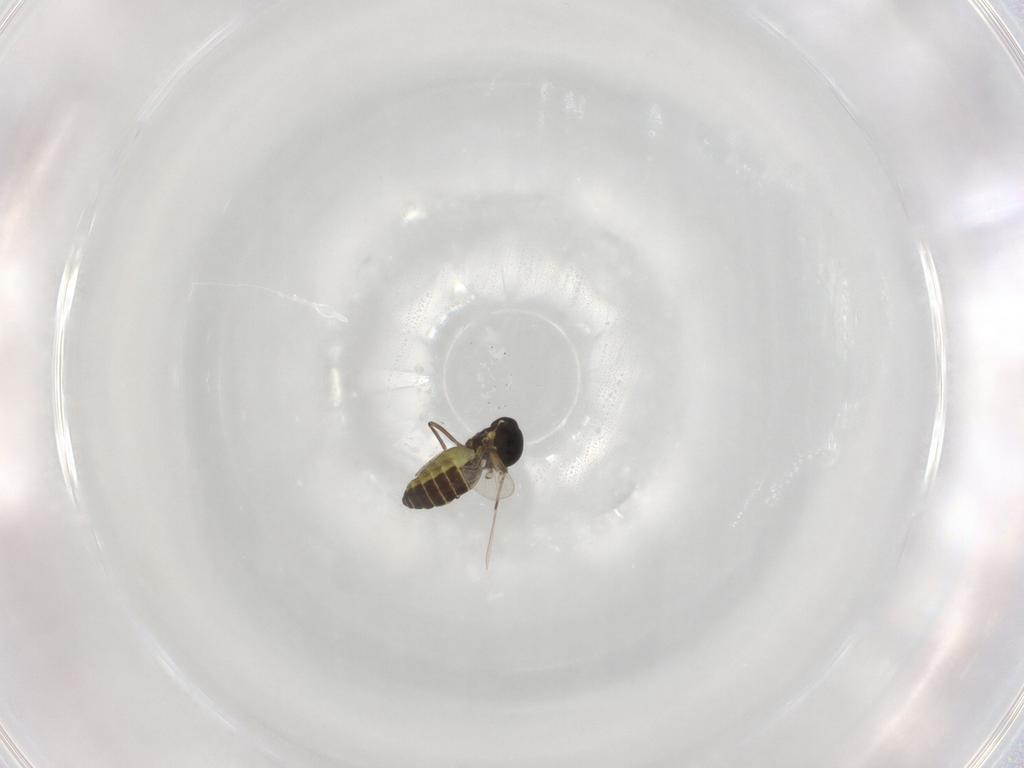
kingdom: Animalia
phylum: Arthropoda
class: Insecta
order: Diptera
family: Ceratopogonidae
